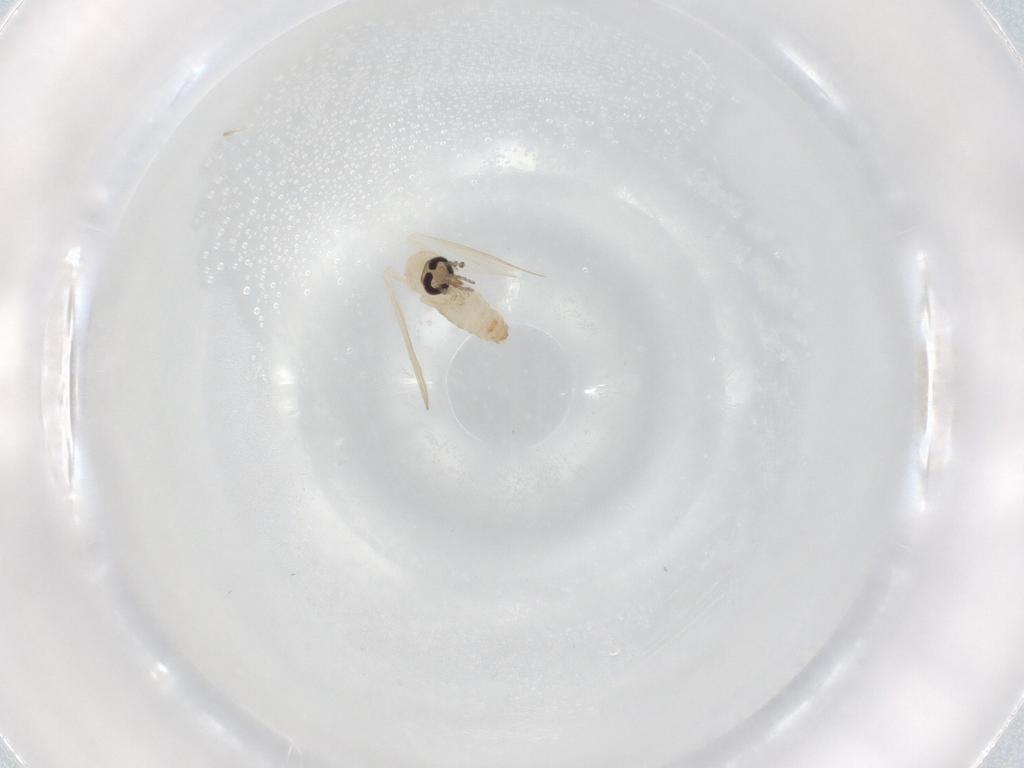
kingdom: Animalia
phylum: Arthropoda
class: Insecta
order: Diptera
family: Psychodidae
